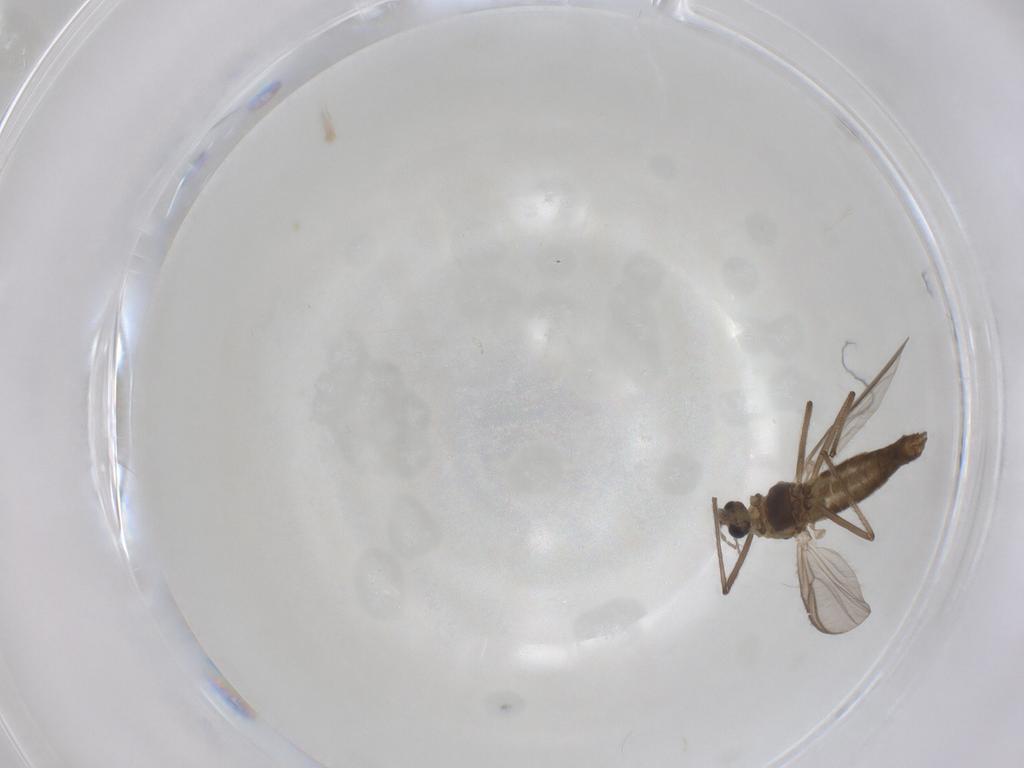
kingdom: Animalia
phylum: Arthropoda
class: Insecta
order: Diptera
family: Chironomidae
